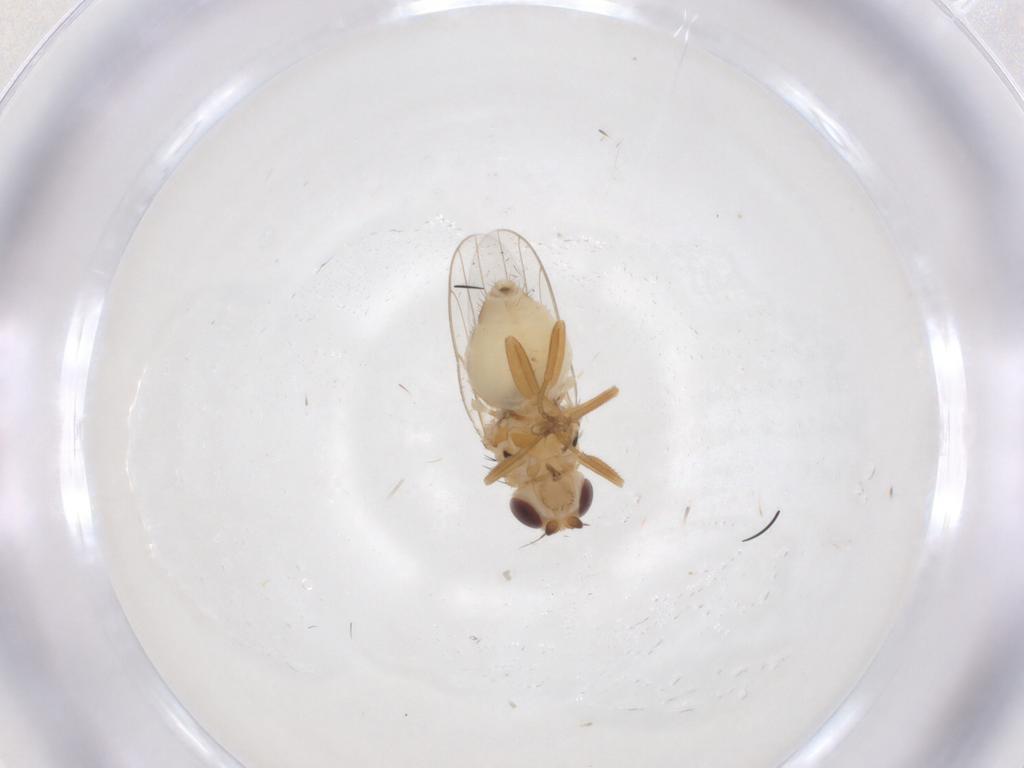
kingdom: Animalia
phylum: Arthropoda
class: Insecta
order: Diptera
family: Chloropidae
